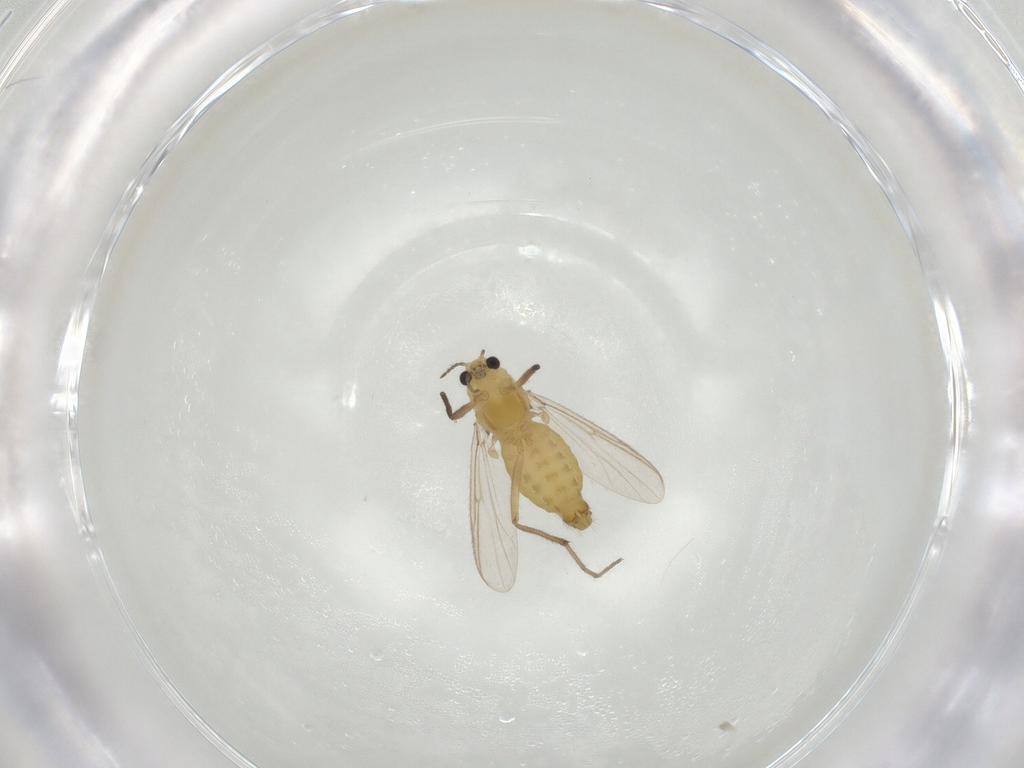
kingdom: Animalia
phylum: Arthropoda
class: Insecta
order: Diptera
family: Chironomidae
